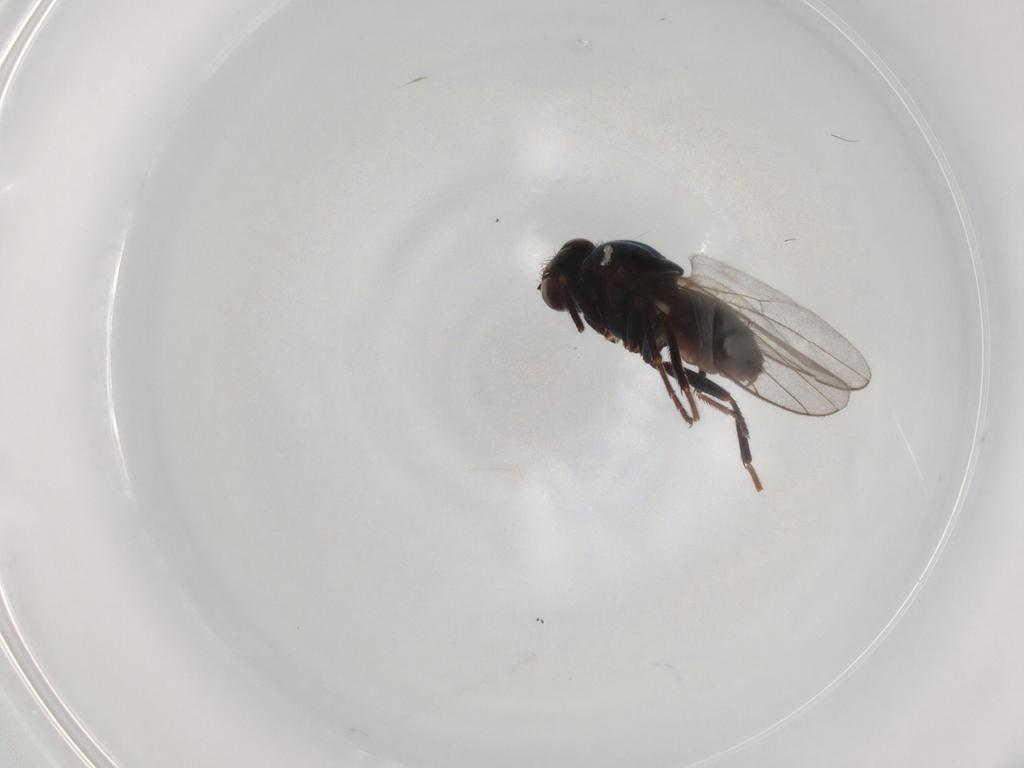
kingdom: Animalia
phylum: Arthropoda
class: Insecta
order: Diptera
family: Chloropidae
